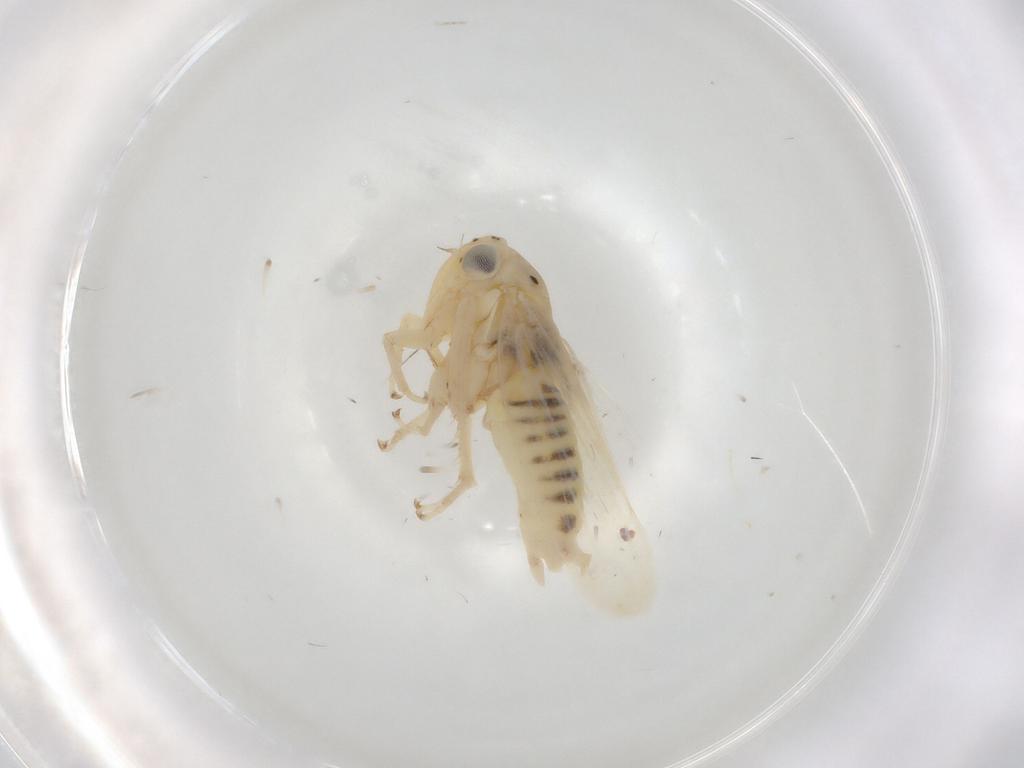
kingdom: Animalia
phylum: Arthropoda
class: Insecta
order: Hemiptera
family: Cicadellidae
